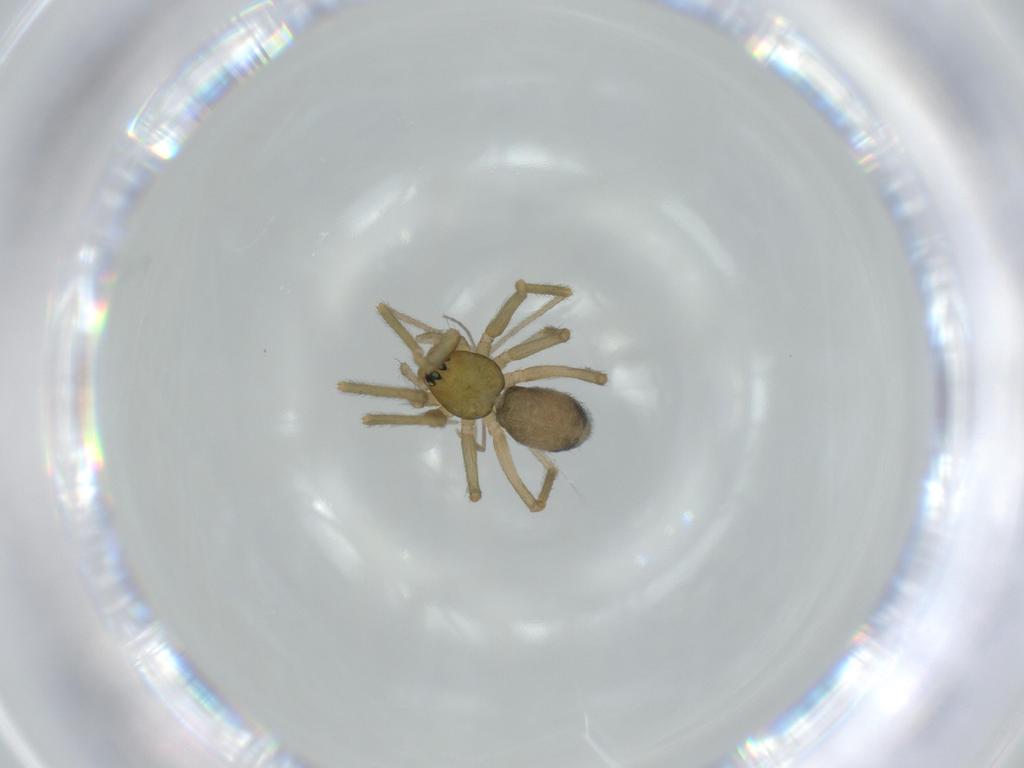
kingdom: Animalia
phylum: Arthropoda
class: Arachnida
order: Araneae
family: Linyphiidae
